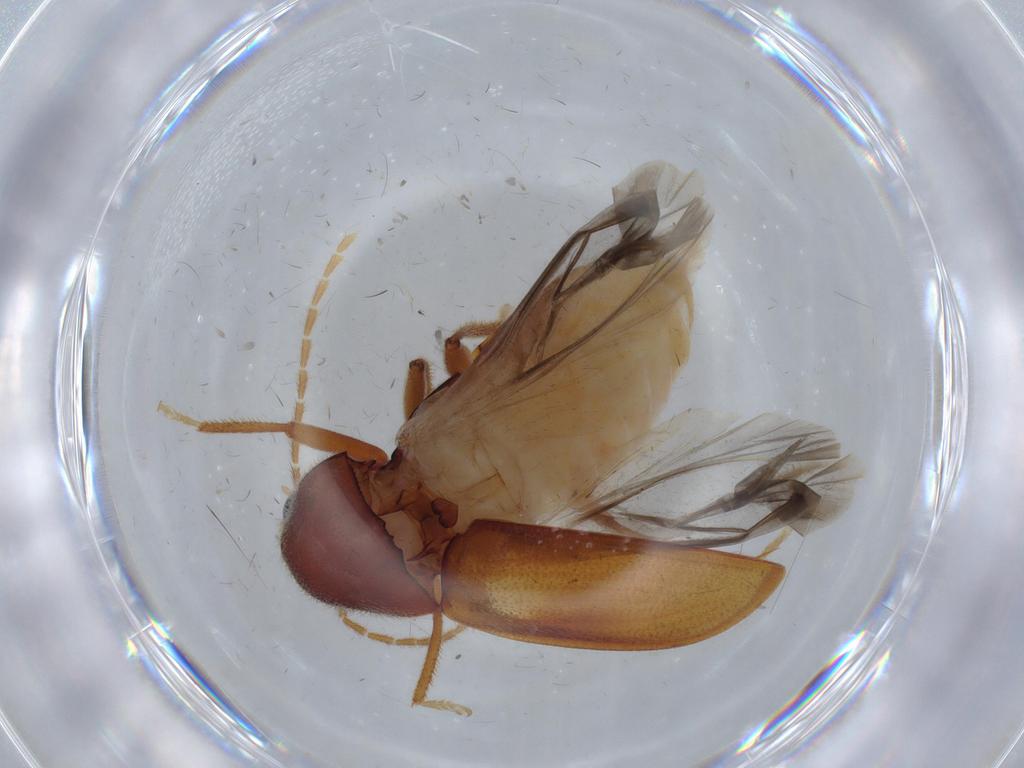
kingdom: Animalia
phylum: Arthropoda
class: Insecta
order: Coleoptera
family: Ptilodactylidae
